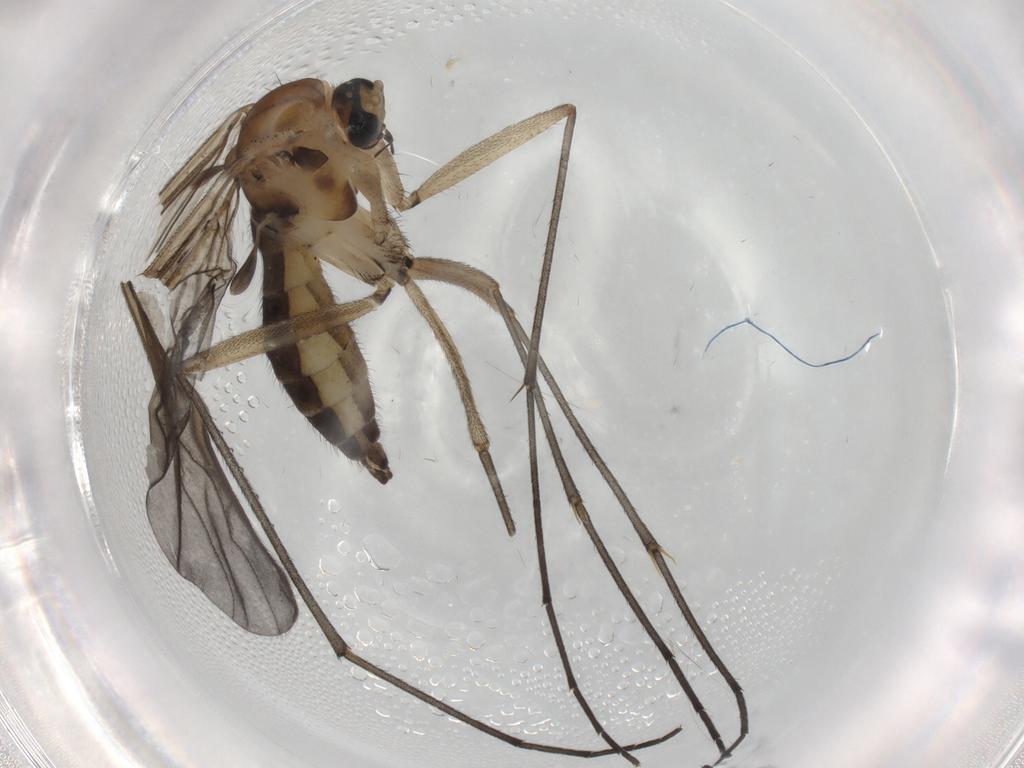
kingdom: Animalia
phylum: Arthropoda
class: Insecta
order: Diptera
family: Sciaridae
